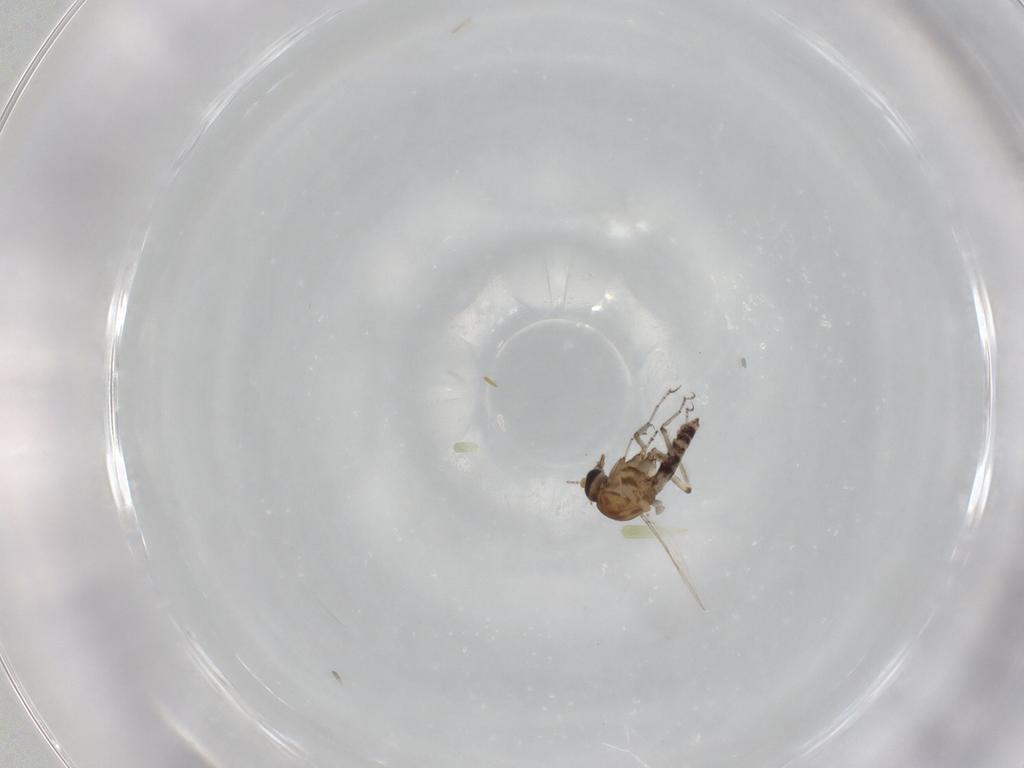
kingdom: Animalia
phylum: Arthropoda
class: Insecta
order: Diptera
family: Ceratopogonidae
